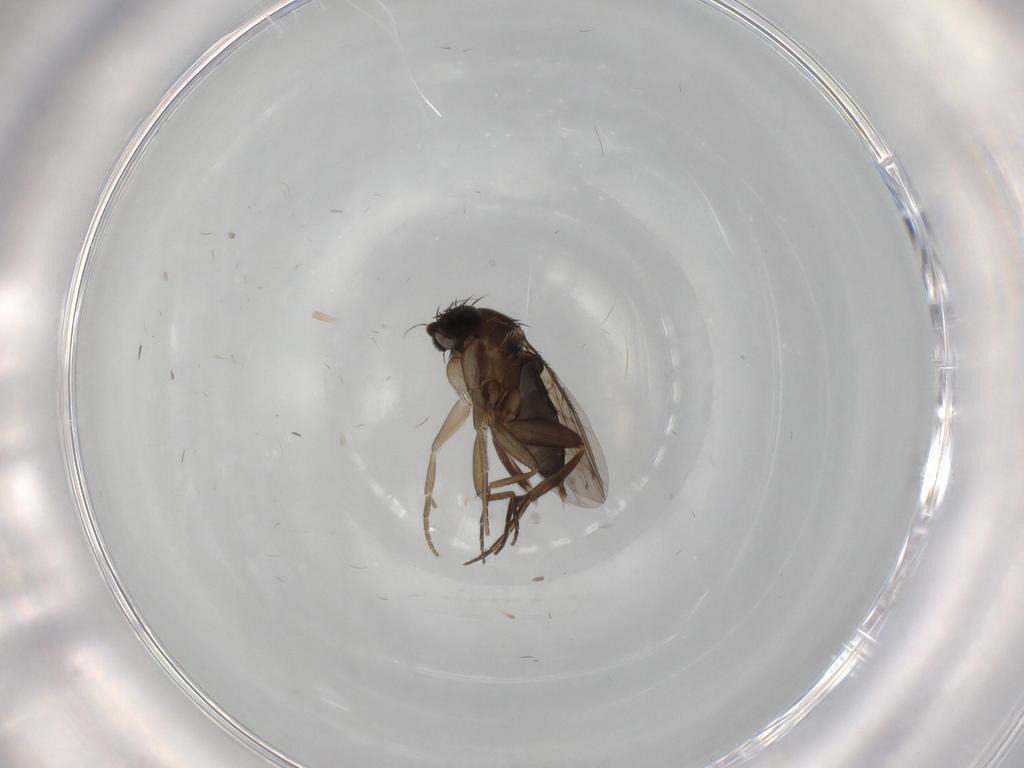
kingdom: Animalia
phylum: Arthropoda
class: Insecta
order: Diptera
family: Phoridae
